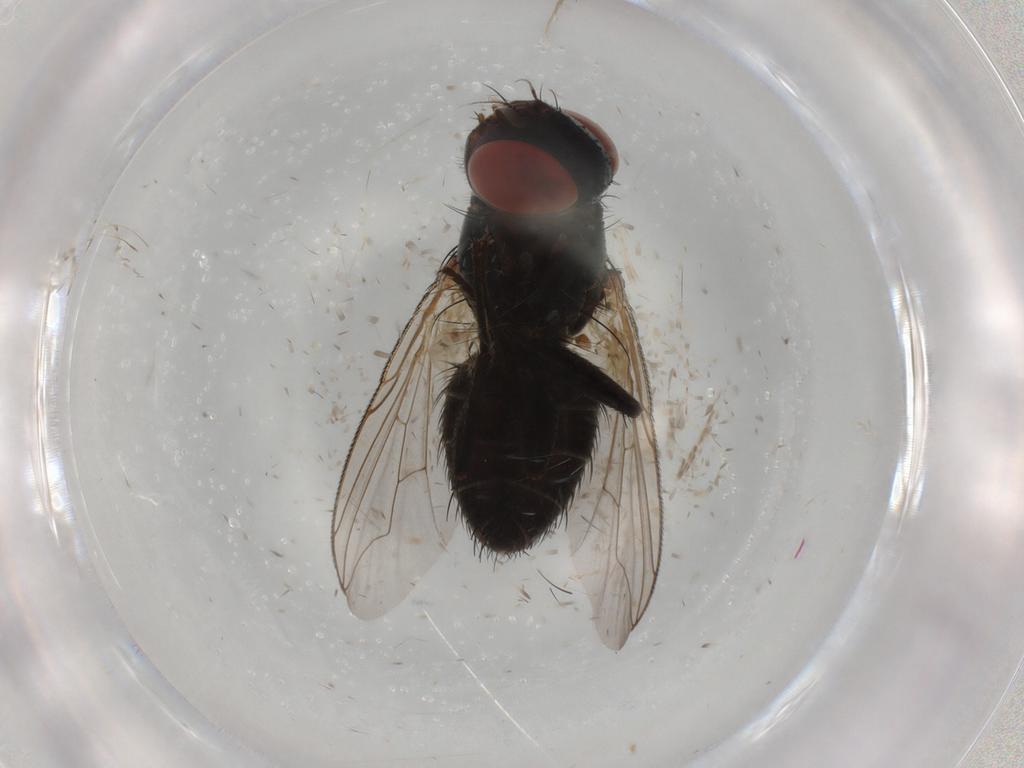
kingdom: Animalia
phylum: Arthropoda
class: Insecta
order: Diptera
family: Sarcophagidae
